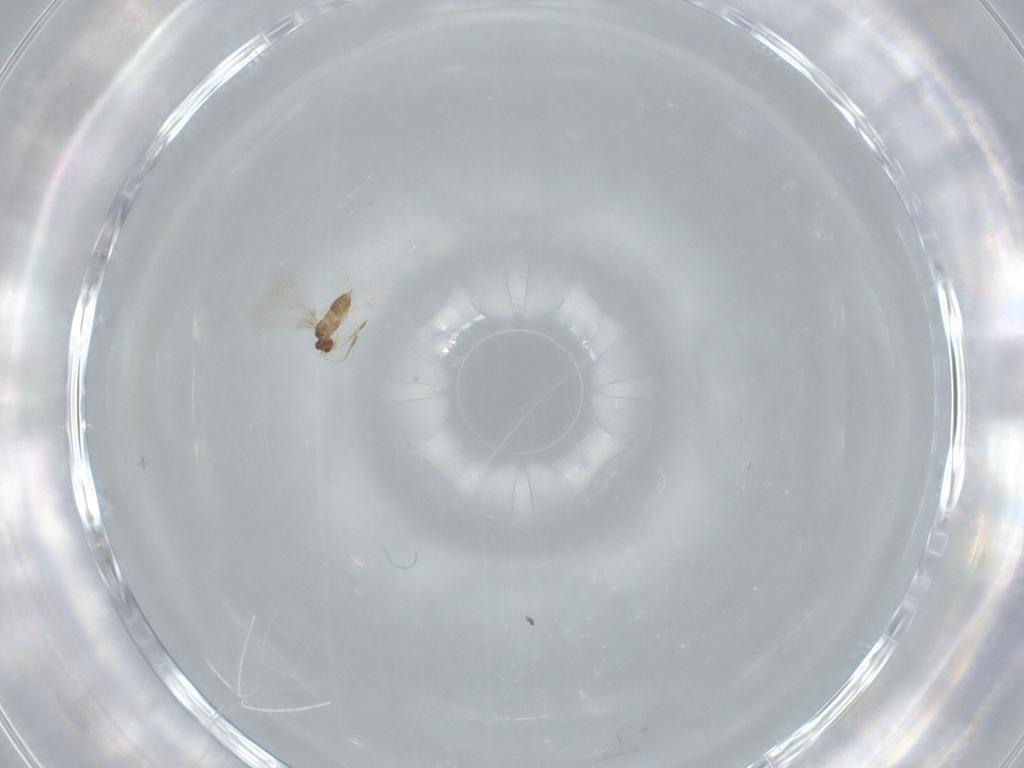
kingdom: Animalia
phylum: Arthropoda
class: Insecta
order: Hymenoptera
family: Mymaridae
